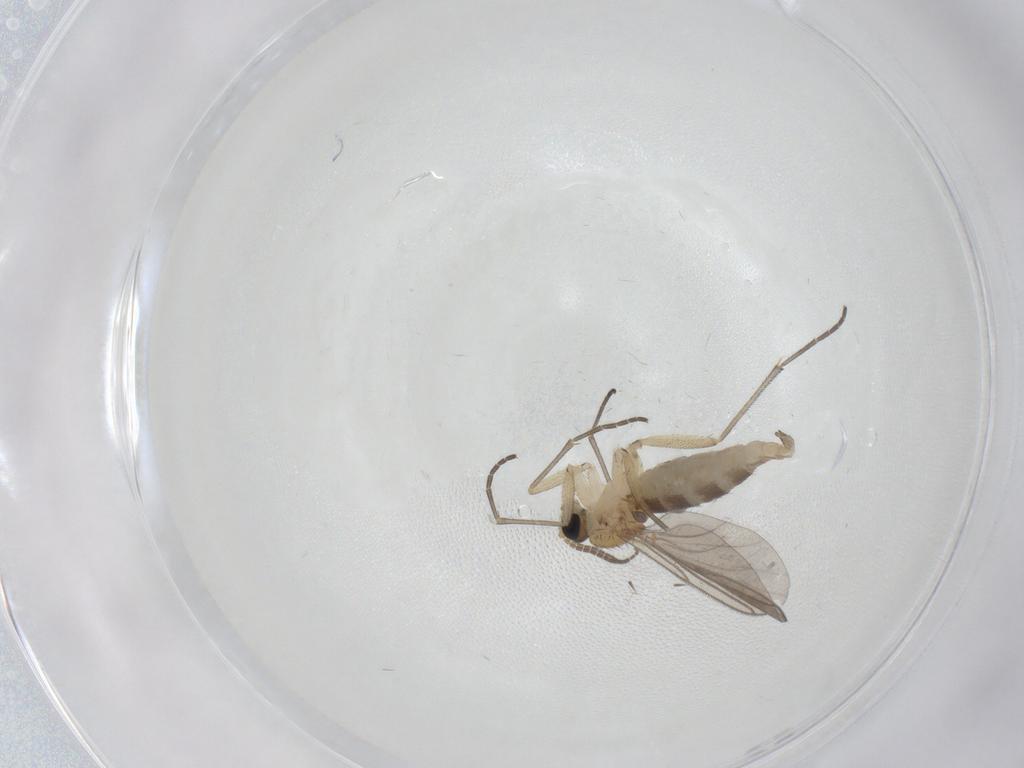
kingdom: Animalia
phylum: Arthropoda
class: Insecta
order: Diptera
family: Sciaridae
